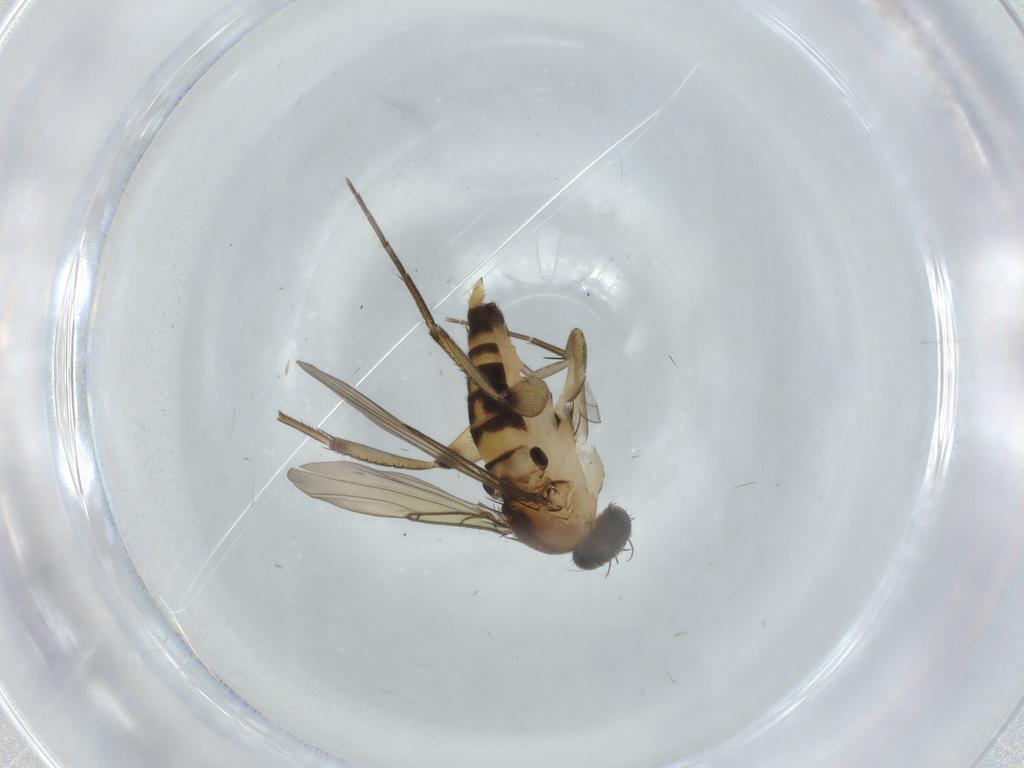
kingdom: Animalia
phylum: Arthropoda
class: Insecta
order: Diptera
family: Phoridae
